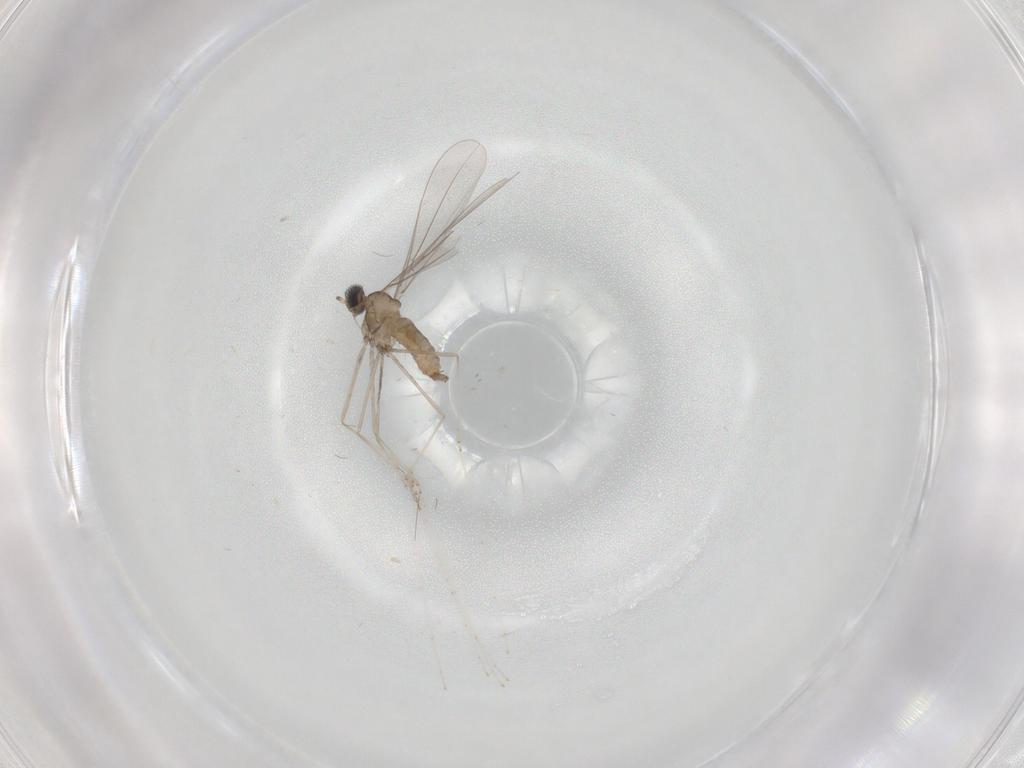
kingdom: Animalia
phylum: Arthropoda
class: Insecta
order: Diptera
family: Cecidomyiidae
